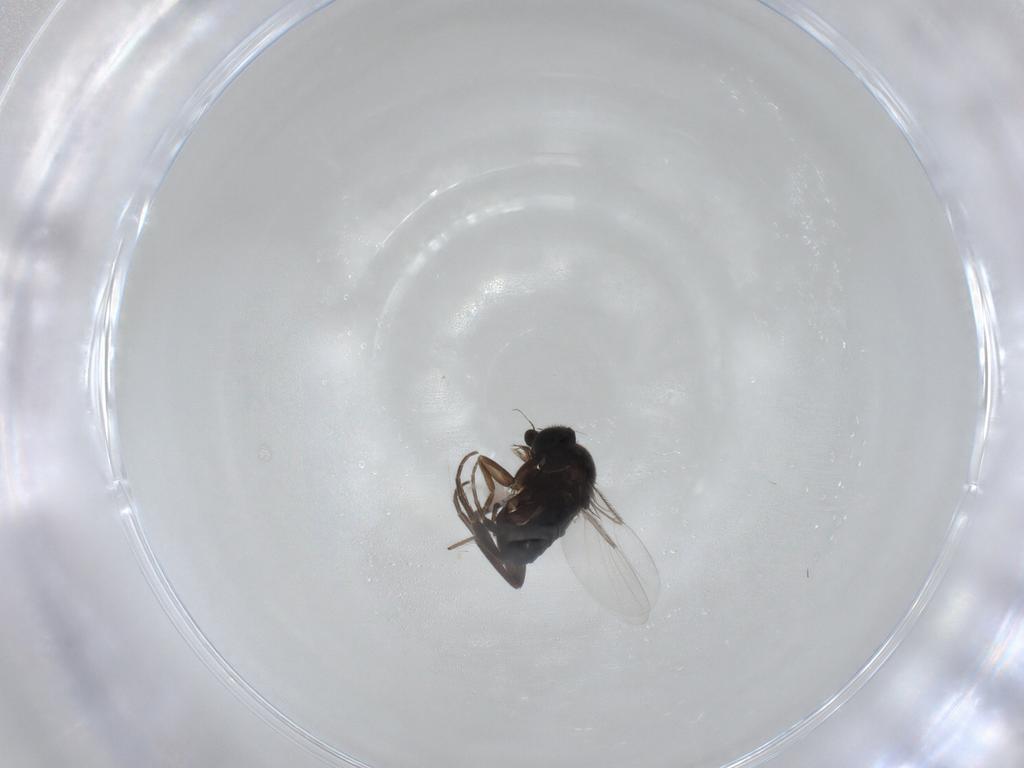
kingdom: Animalia
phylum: Arthropoda
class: Insecta
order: Diptera
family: Phoridae
